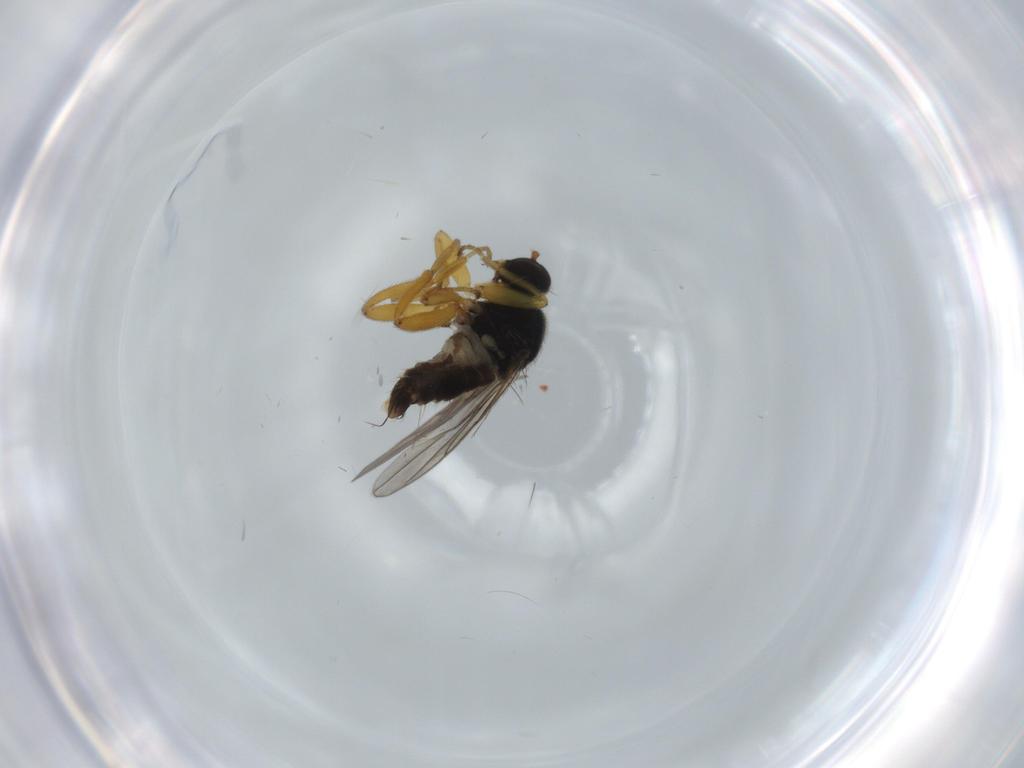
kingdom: Animalia
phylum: Arthropoda
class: Insecta
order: Diptera
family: Hybotidae
